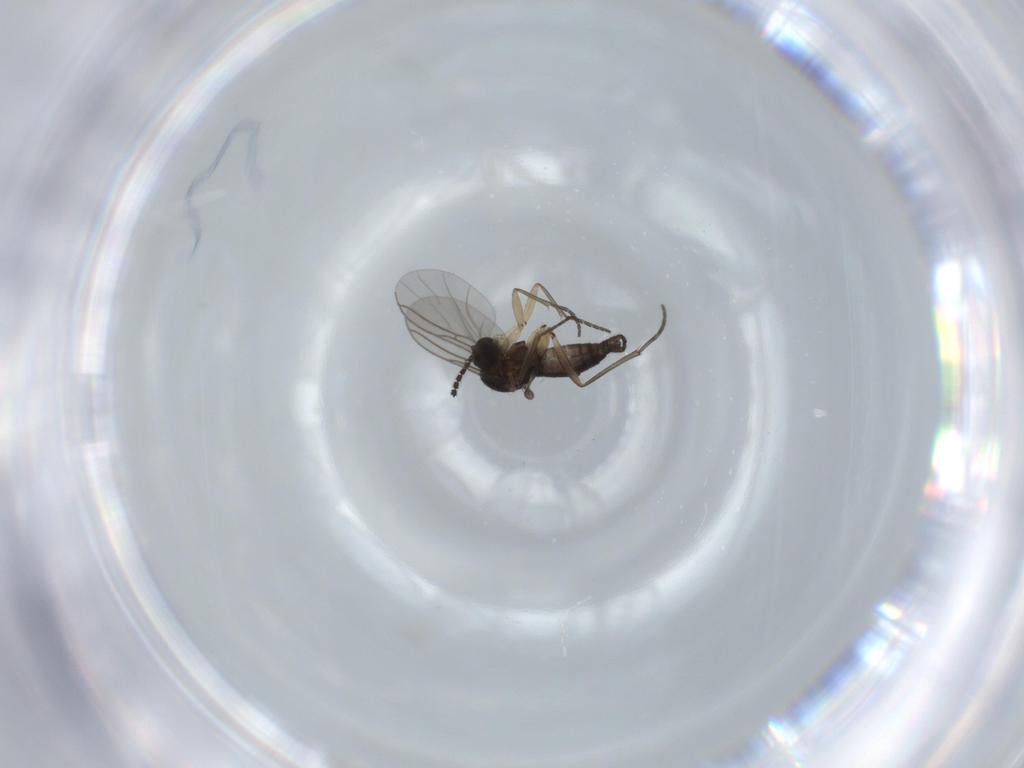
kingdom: Animalia
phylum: Arthropoda
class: Insecta
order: Diptera
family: Sciaridae
